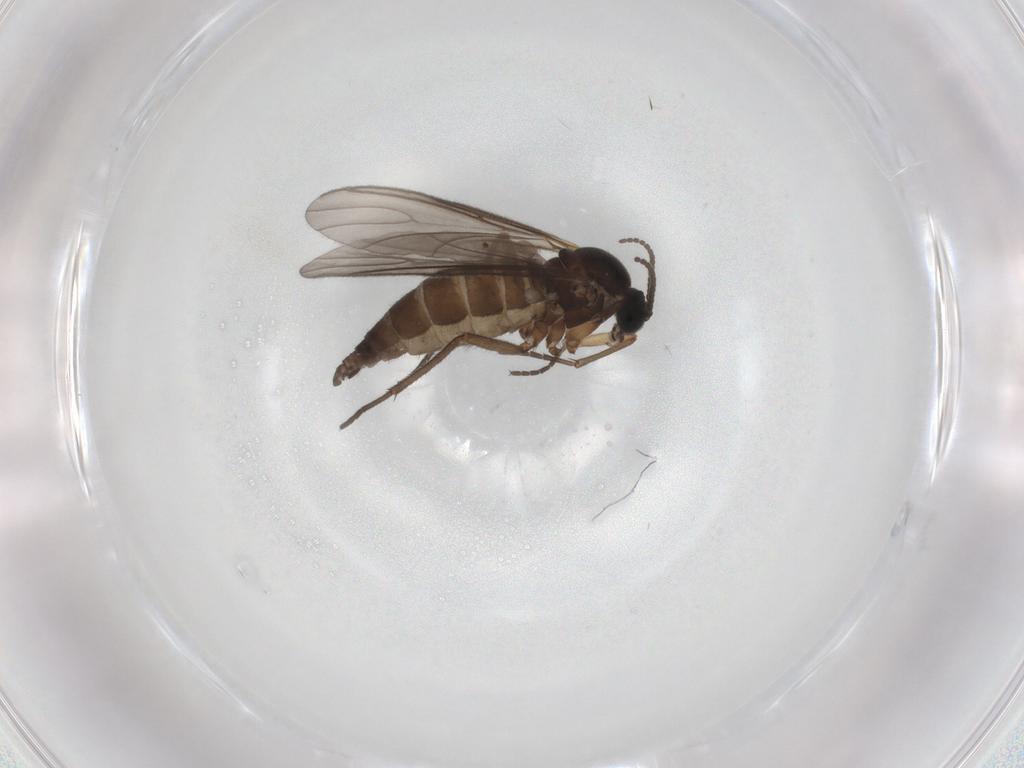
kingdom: Animalia
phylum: Arthropoda
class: Insecta
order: Diptera
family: Sciaridae
